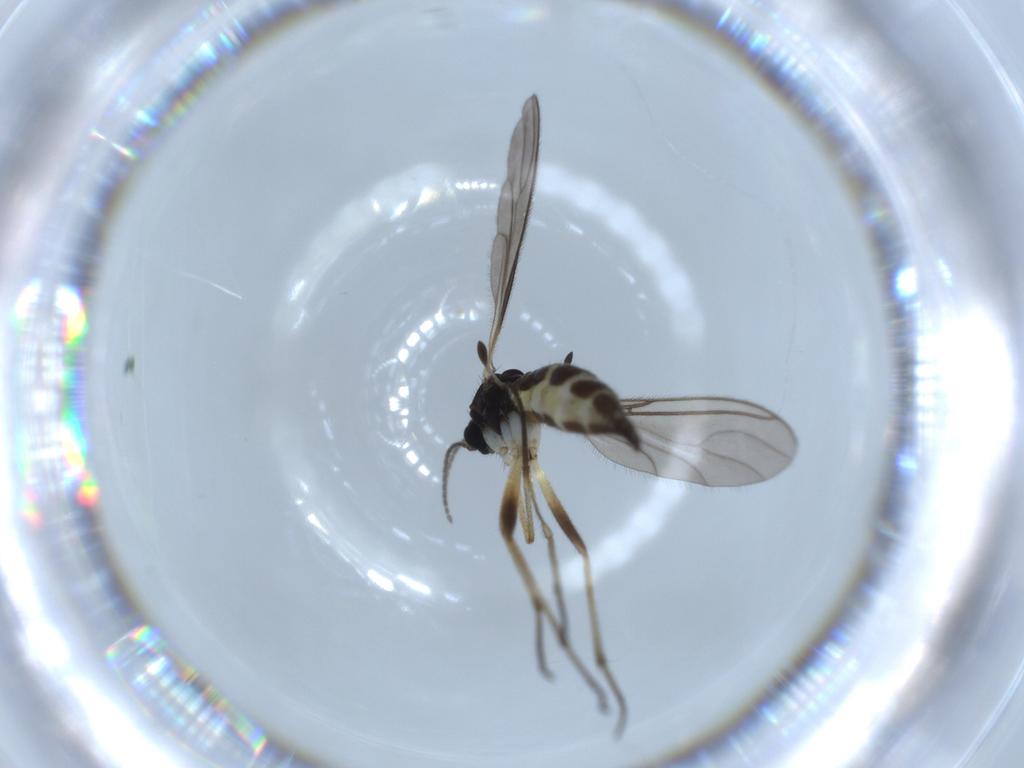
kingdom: Animalia
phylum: Arthropoda
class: Insecta
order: Diptera
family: Sciaridae
